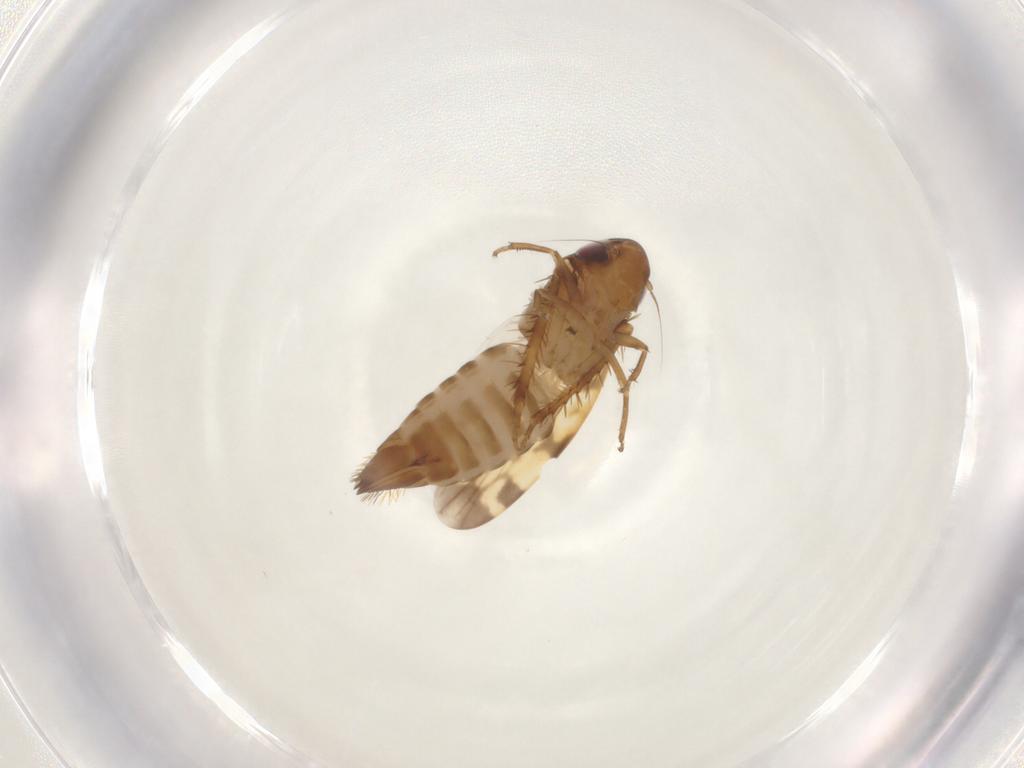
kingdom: Animalia
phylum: Arthropoda
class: Insecta
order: Hemiptera
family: Cicadellidae
